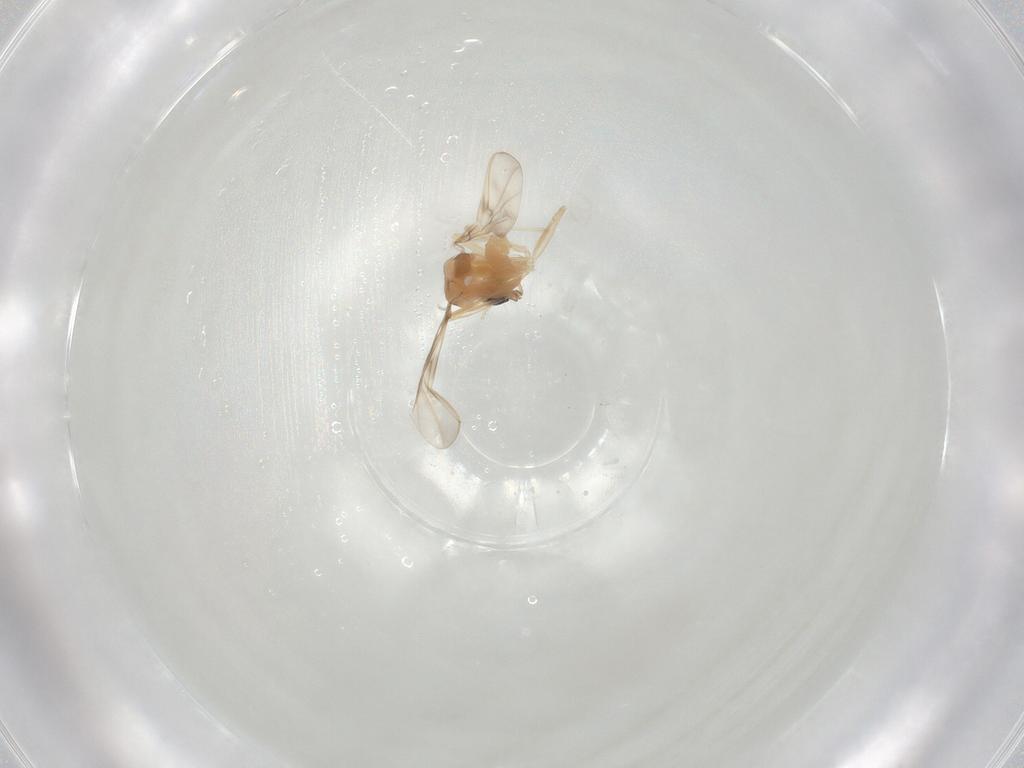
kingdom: Animalia
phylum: Arthropoda
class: Insecta
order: Diptera
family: Chironomidae
